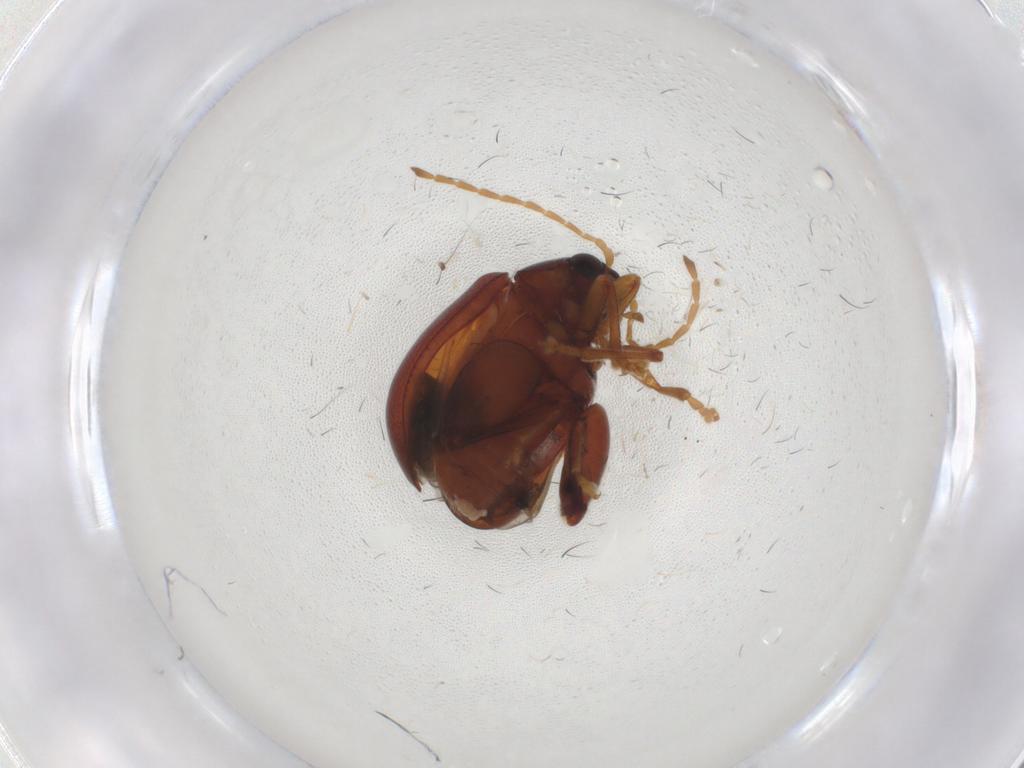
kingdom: Animalia
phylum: Arthropoda
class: Insecta
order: Coleoptera
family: Chrysomelidae
